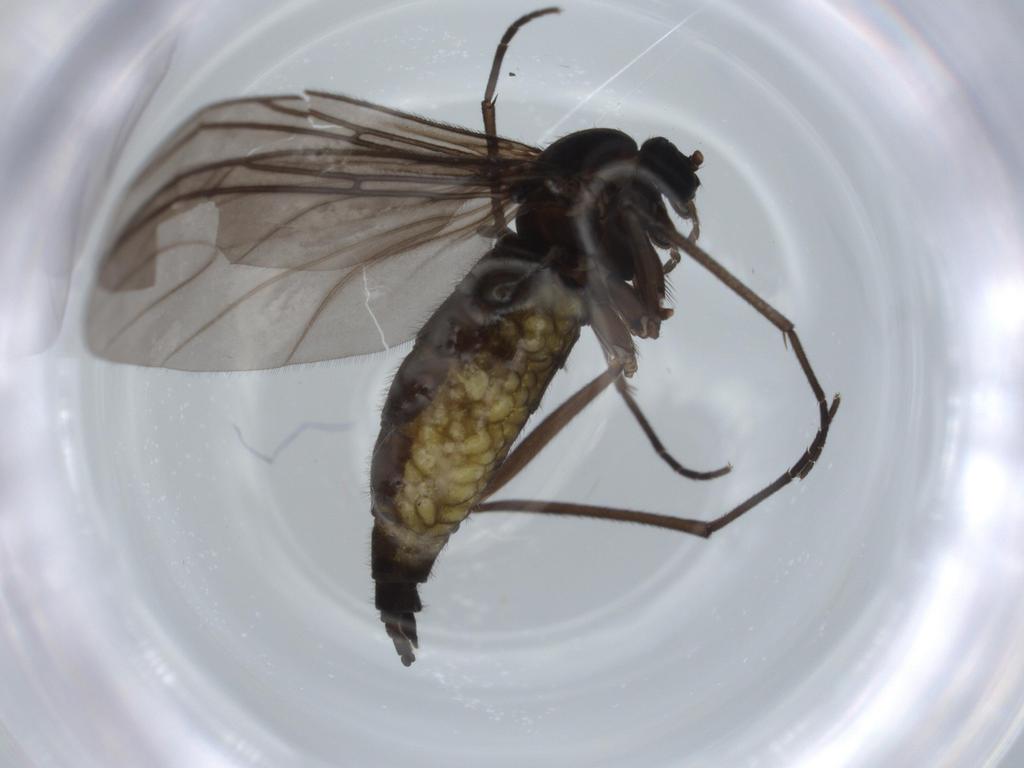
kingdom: Animalia
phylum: Arthropoda
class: Insecta
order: Diptera
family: Sciaridae
